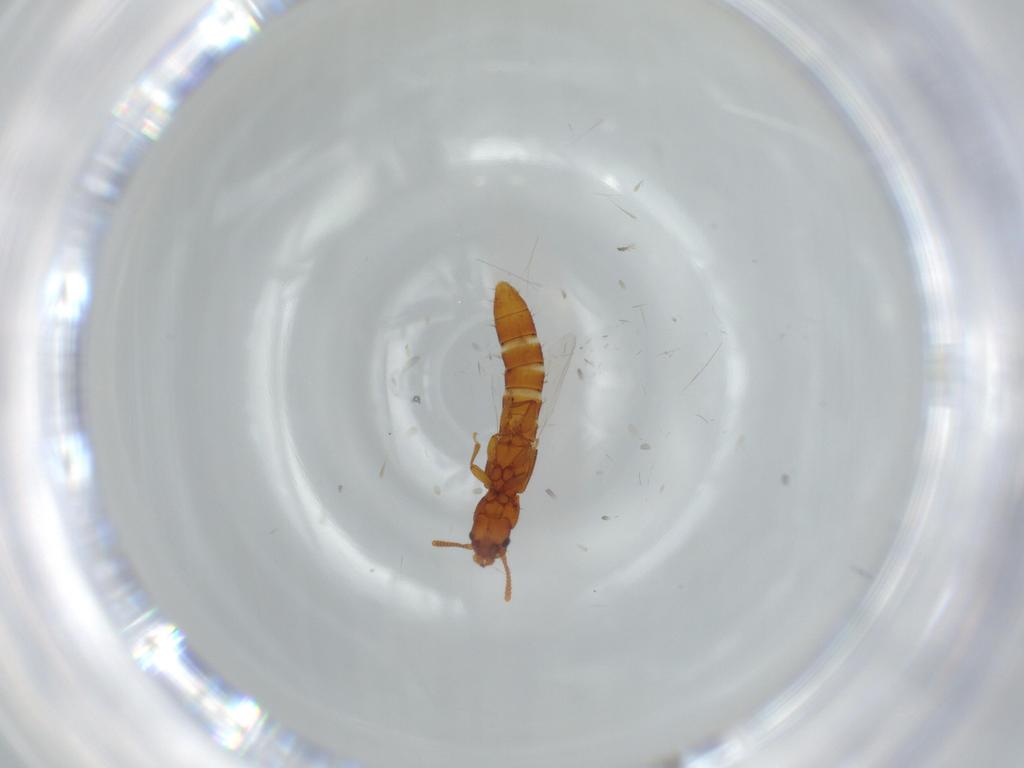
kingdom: Animalia
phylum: Arthropoda
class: Insecta
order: Coleoptera
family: Staphylinidae
